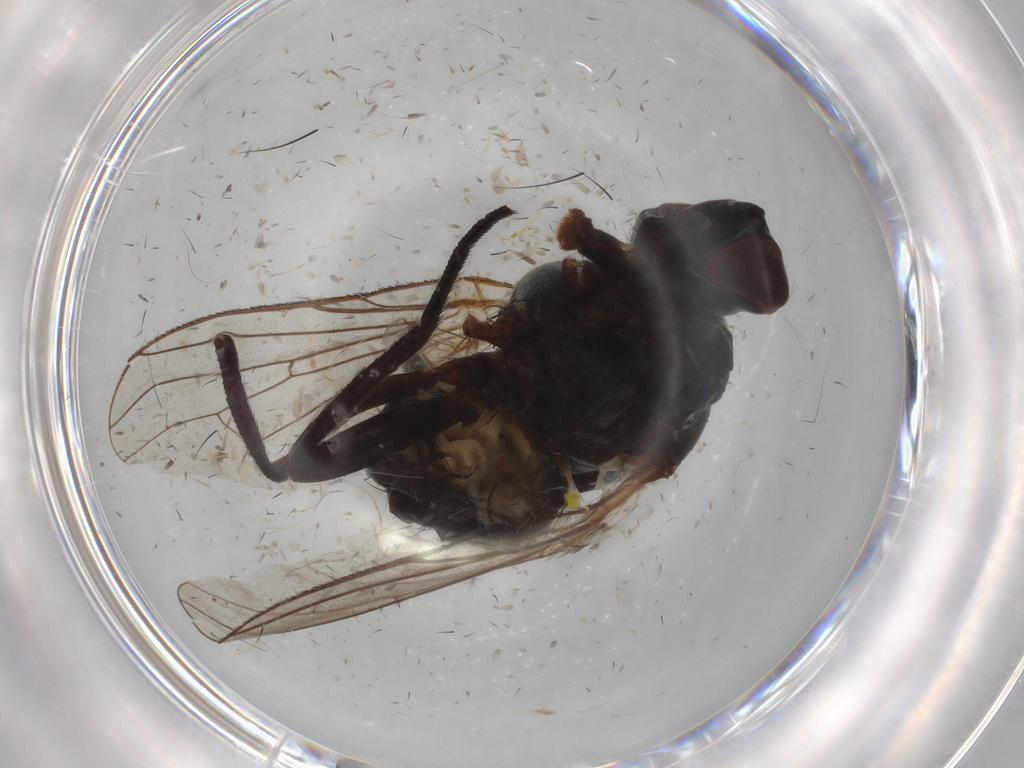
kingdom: Animalia
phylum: Arthropoda
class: Insecta
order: Diptera
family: Anthomyiidae
